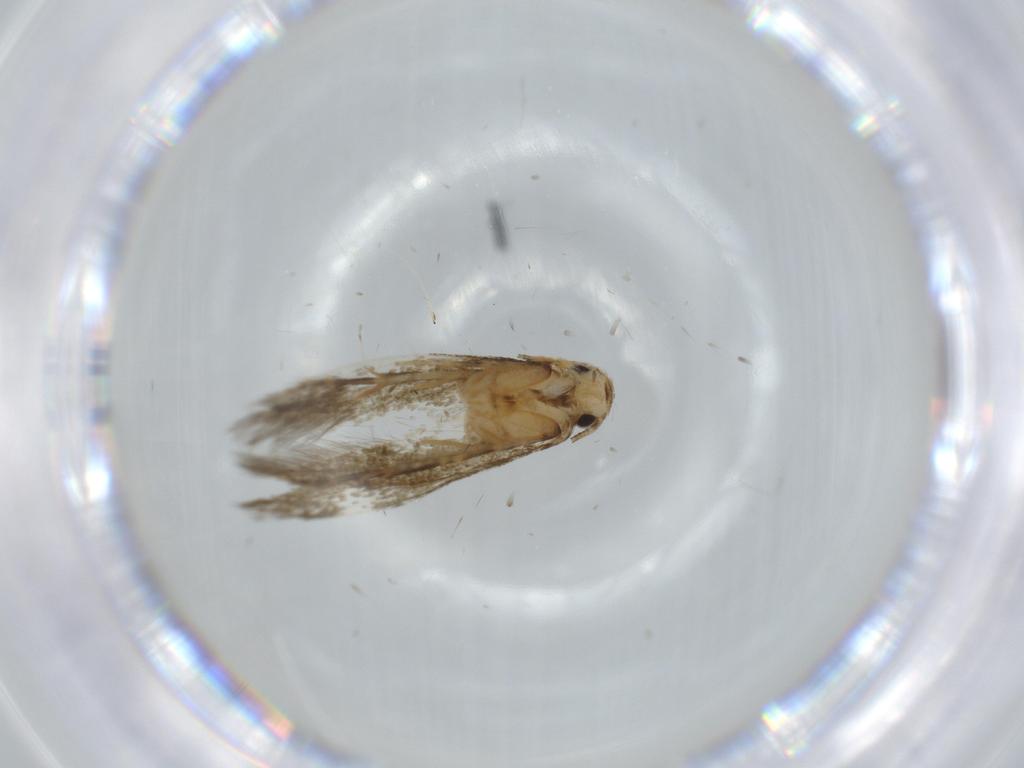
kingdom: Animalia
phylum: Arthropoda
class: Insecta
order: Lepidoptera
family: Tineidae
